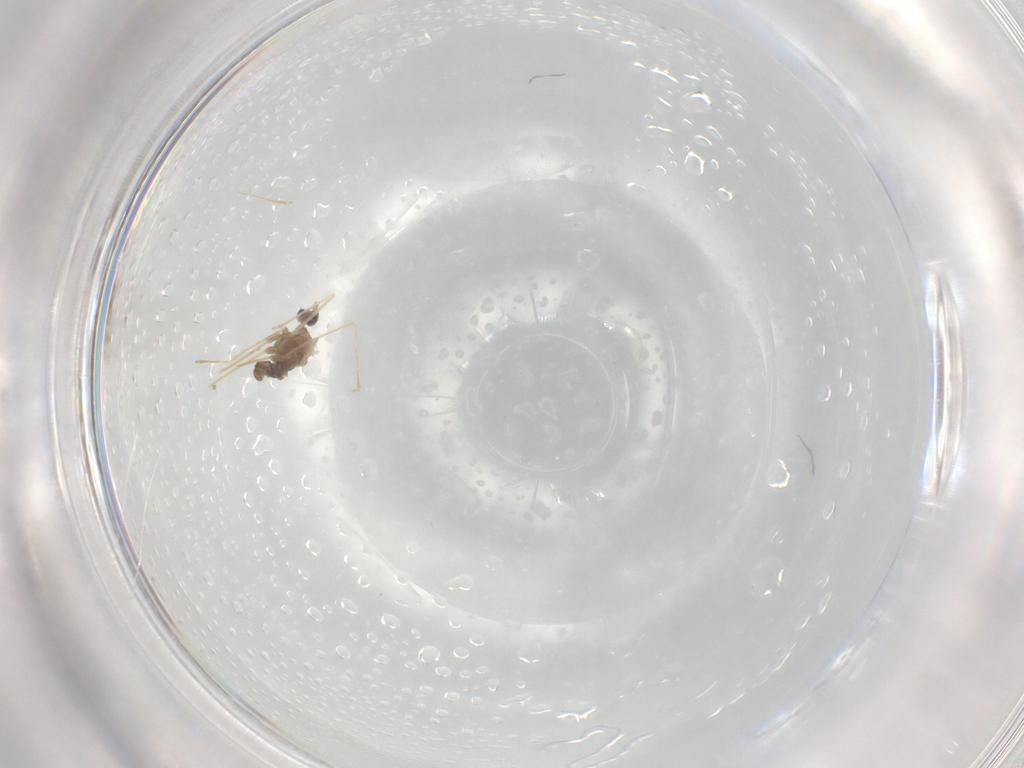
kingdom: Animalia
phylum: Arthropoda
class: Insecta
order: Diptera
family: Cecidomyiidae
